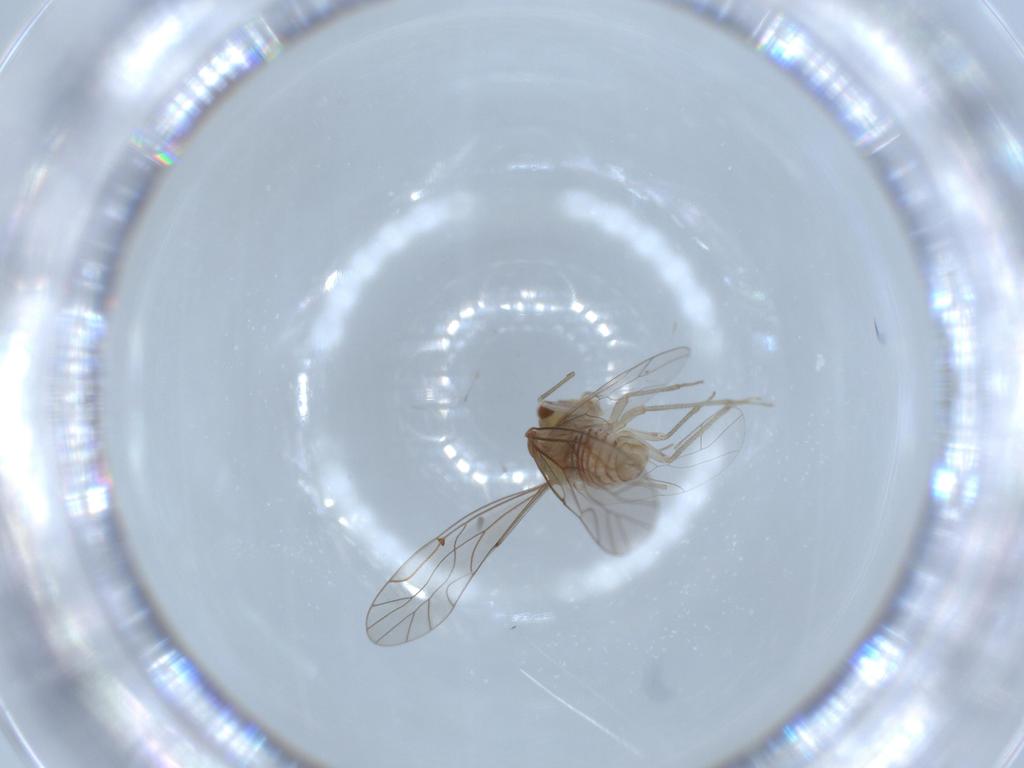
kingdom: Animalia
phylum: Arthropoda
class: Insecta
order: Psocodea
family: Lachesillidae
